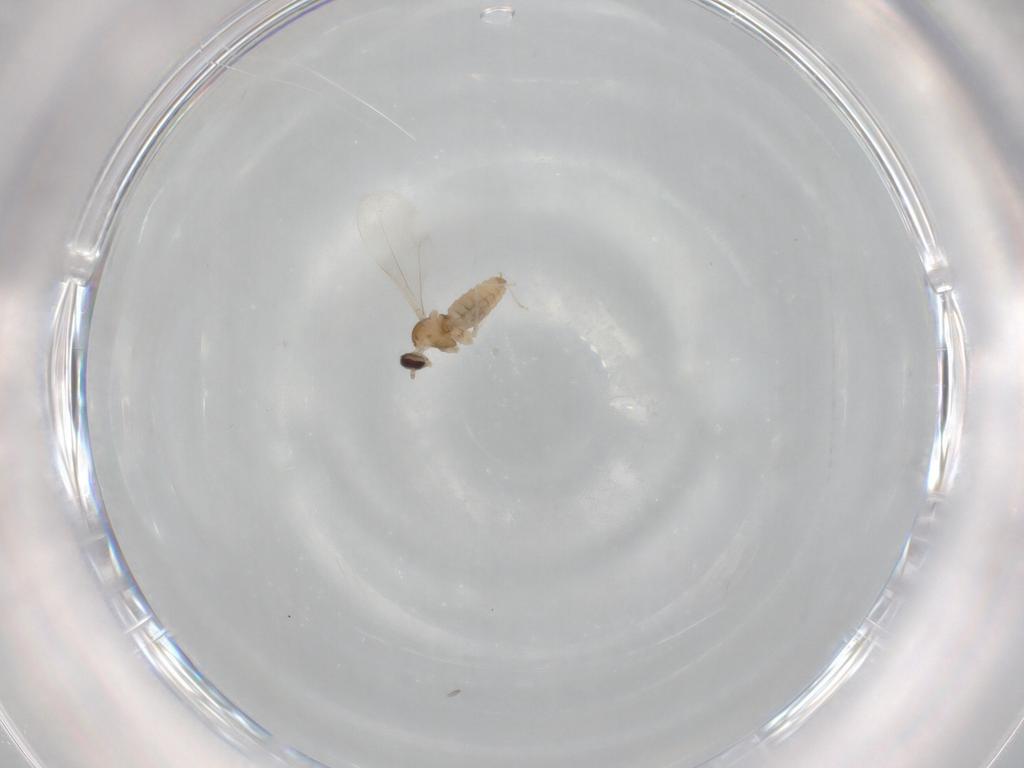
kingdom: Animalia
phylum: Arthropoda
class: Insecta
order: Diptera
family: Cecidomyiidae
